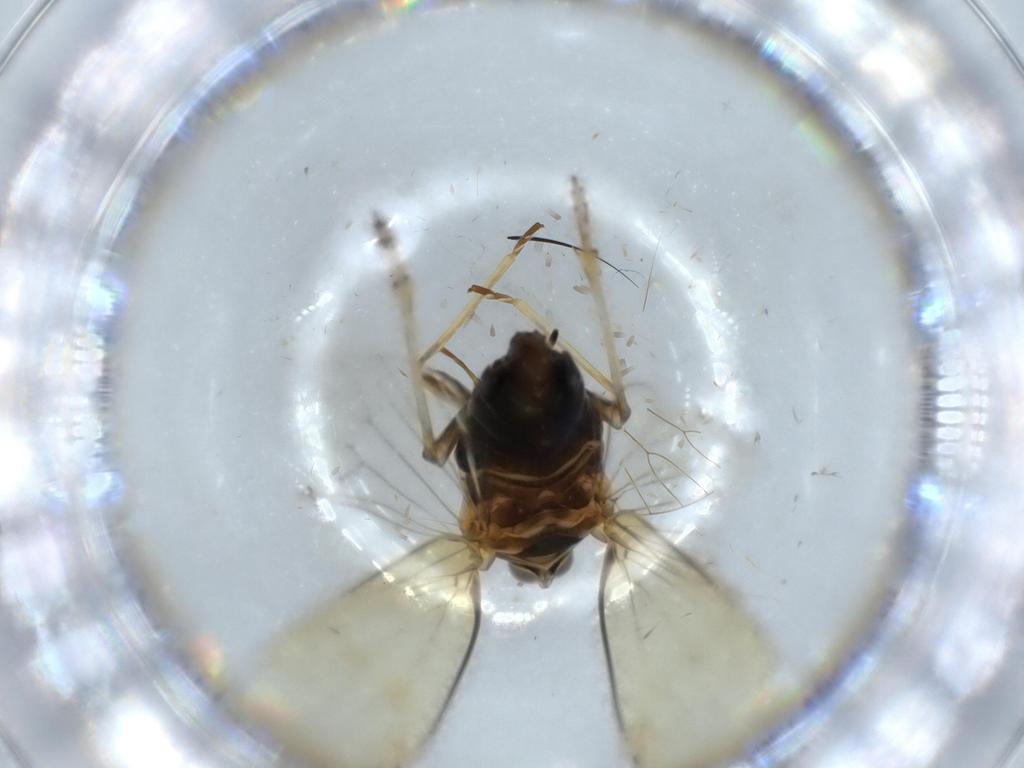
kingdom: Animalia
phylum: Arthropoda
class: Insecta
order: Hemiptera
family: Kinnaridae
